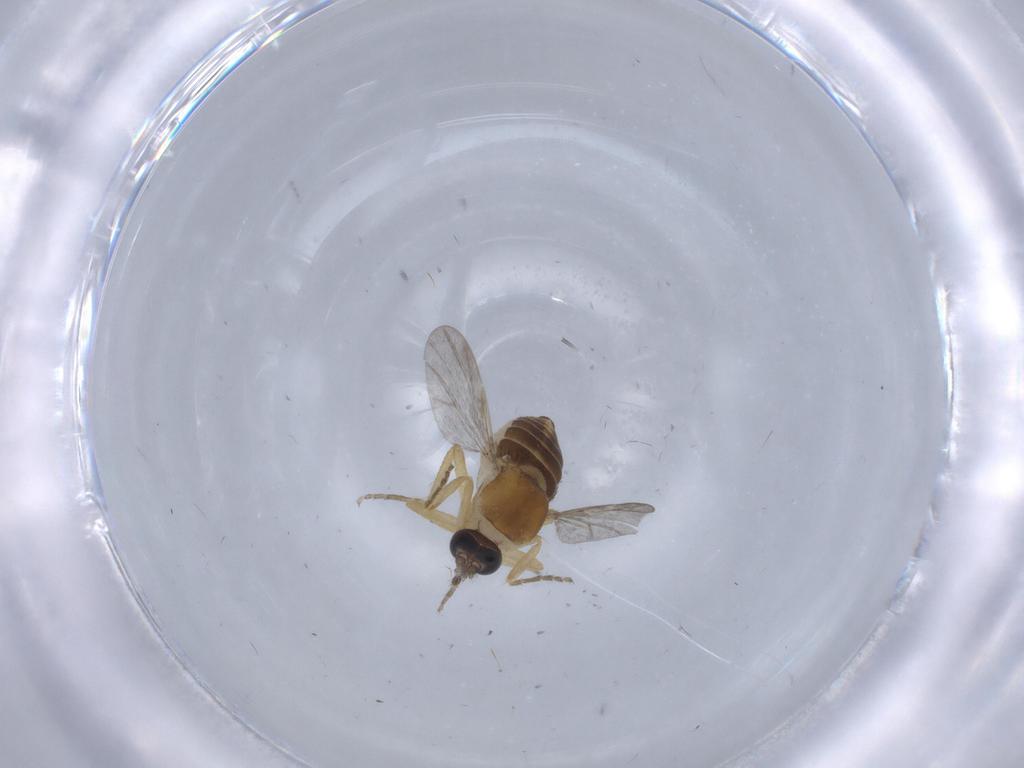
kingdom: Animalia
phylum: Arthropoda
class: Insecta
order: Diptera
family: Ceratopogonidae
